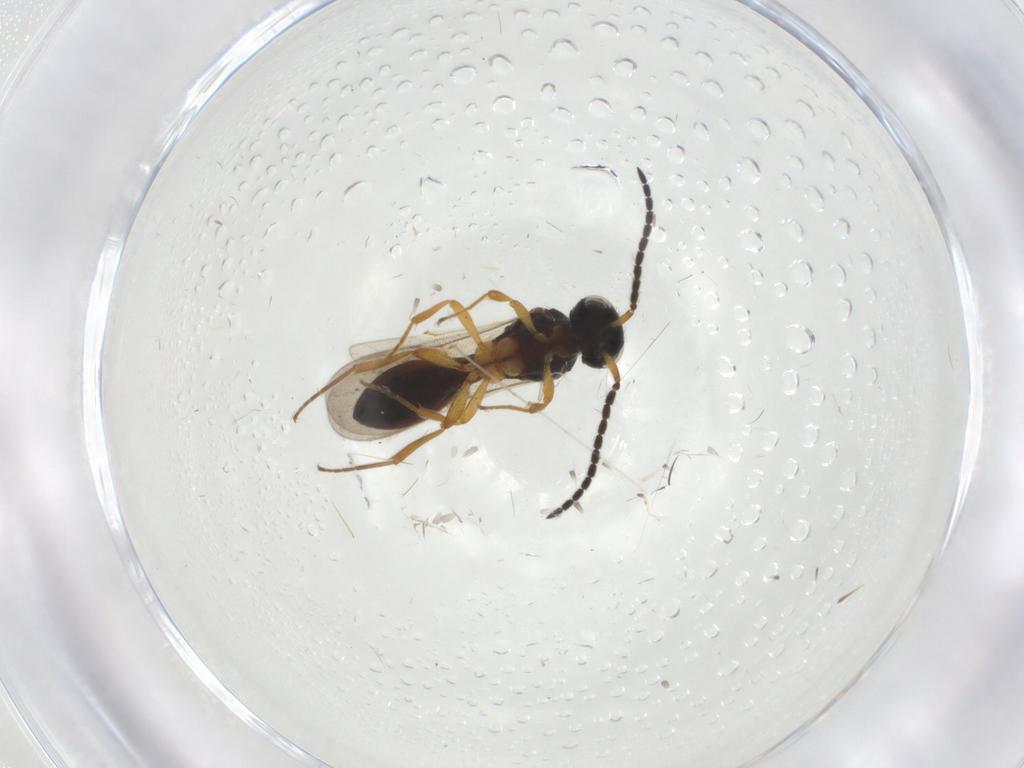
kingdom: Animalia
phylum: Arthropoda
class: Insecta
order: Hymenoptera
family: Scelionidae
